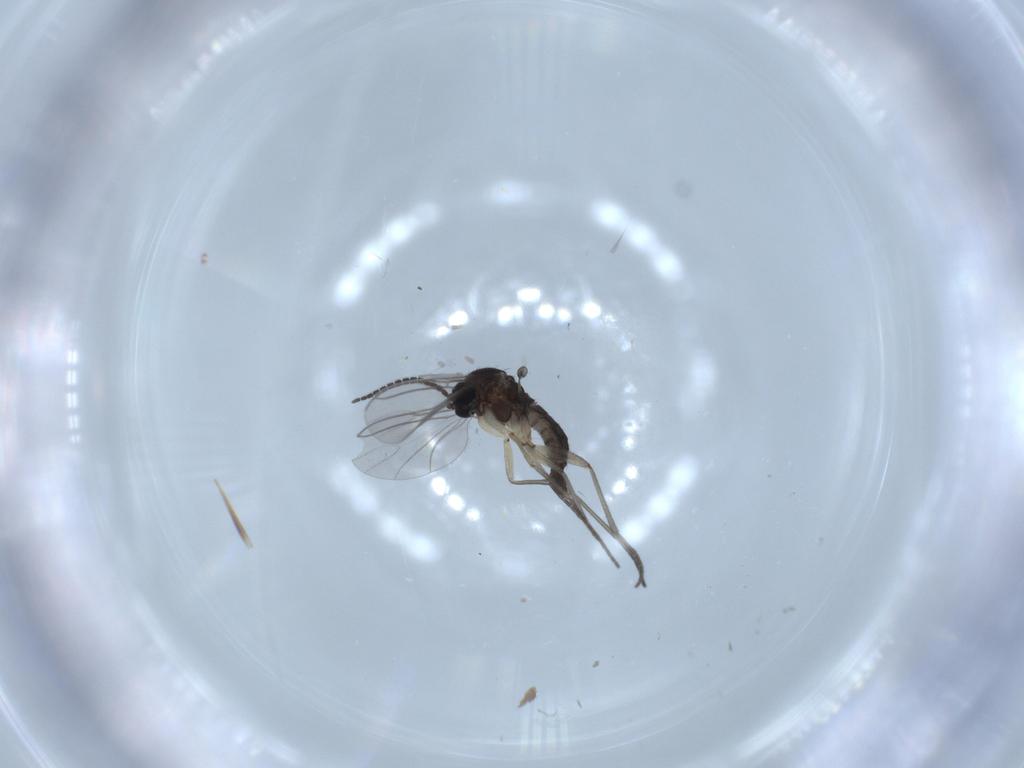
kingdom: Animalia
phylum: Arthropoda
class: Insecta
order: Diptera
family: Sciaridae
